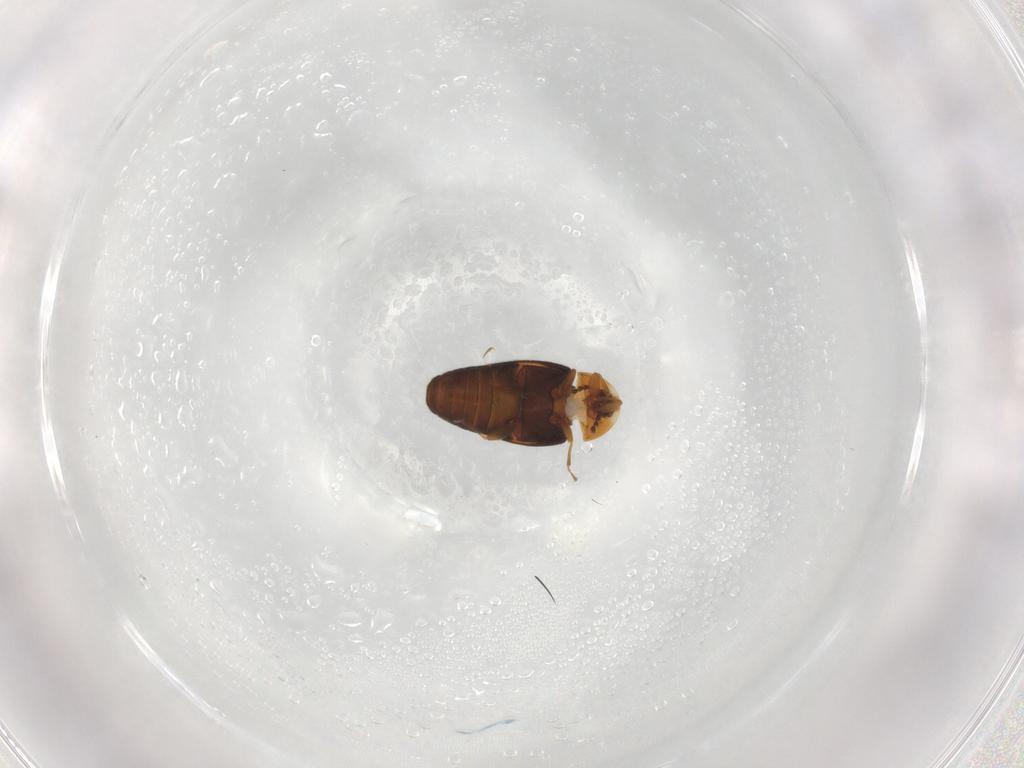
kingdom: Animalia
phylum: Arthropoda
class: Insecta
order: Coleoptera
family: Corylophidae
